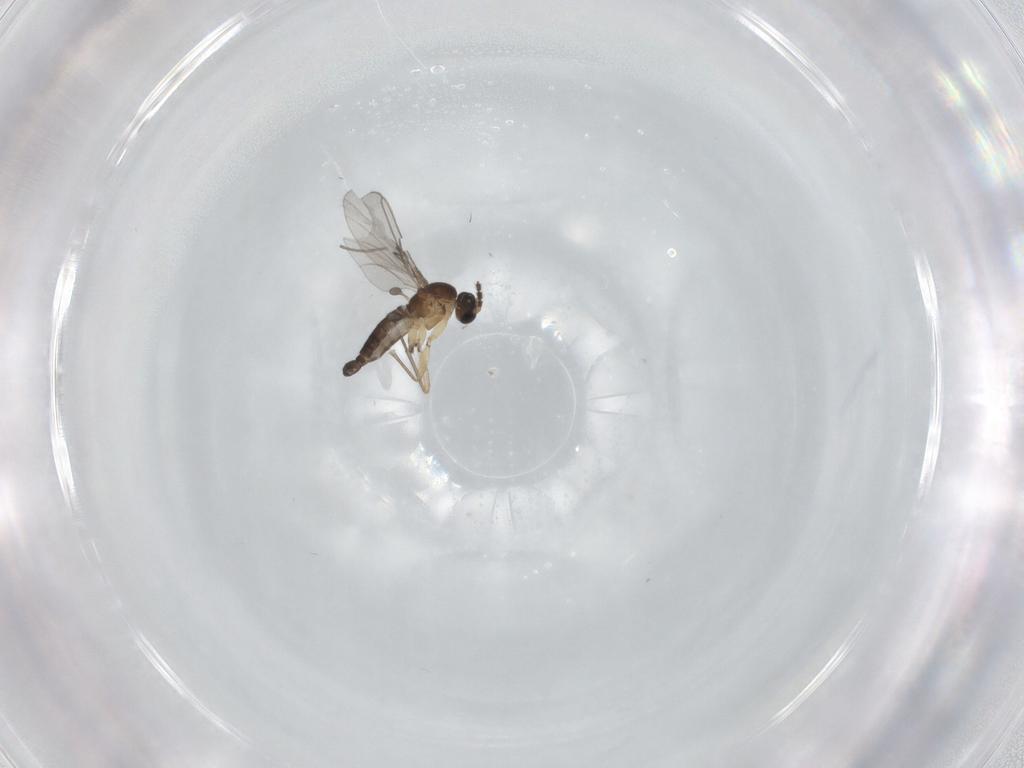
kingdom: Animalia
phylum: Arthropoda
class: Insecta
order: Diptera
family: Sciaridae
